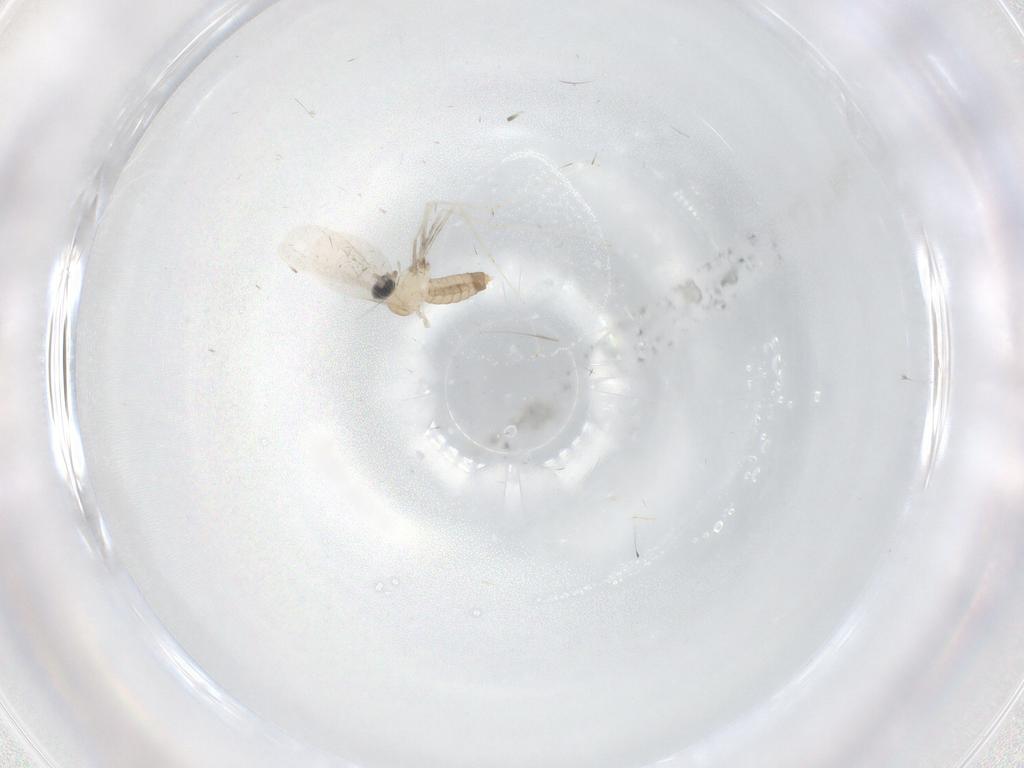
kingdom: Animalia
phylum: Arthropoda
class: Insecta
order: Diptera
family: Cecidomyiidae
